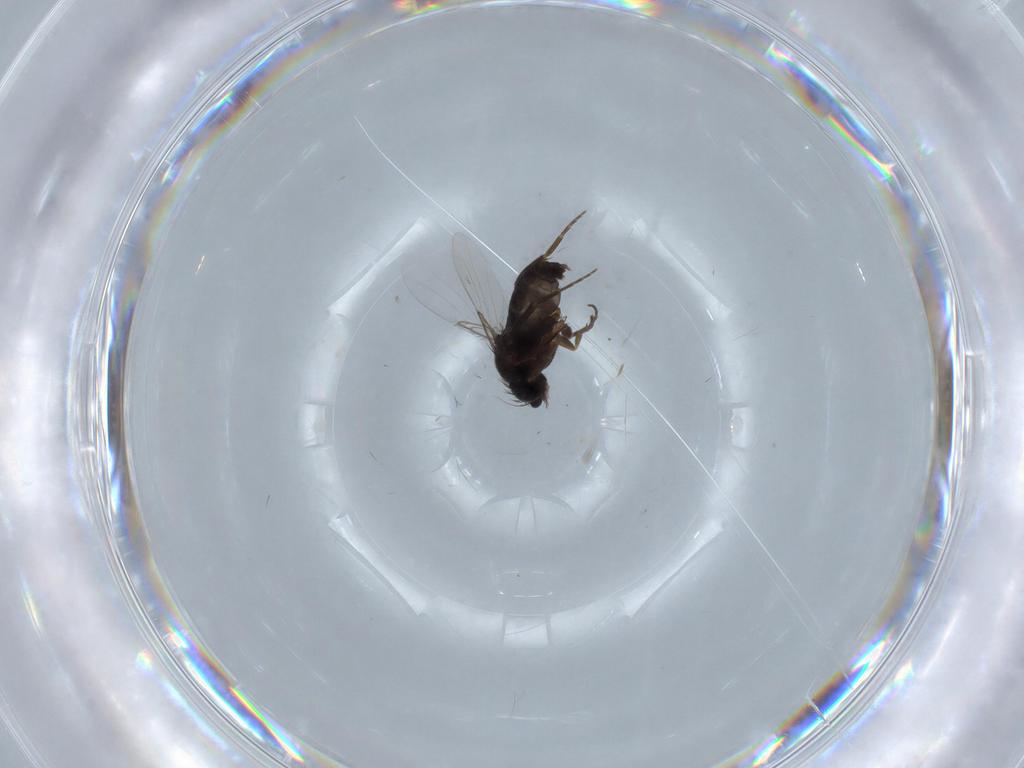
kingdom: Animalia
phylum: Arthropoda
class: Insecta
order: Diptera
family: Phoridae
